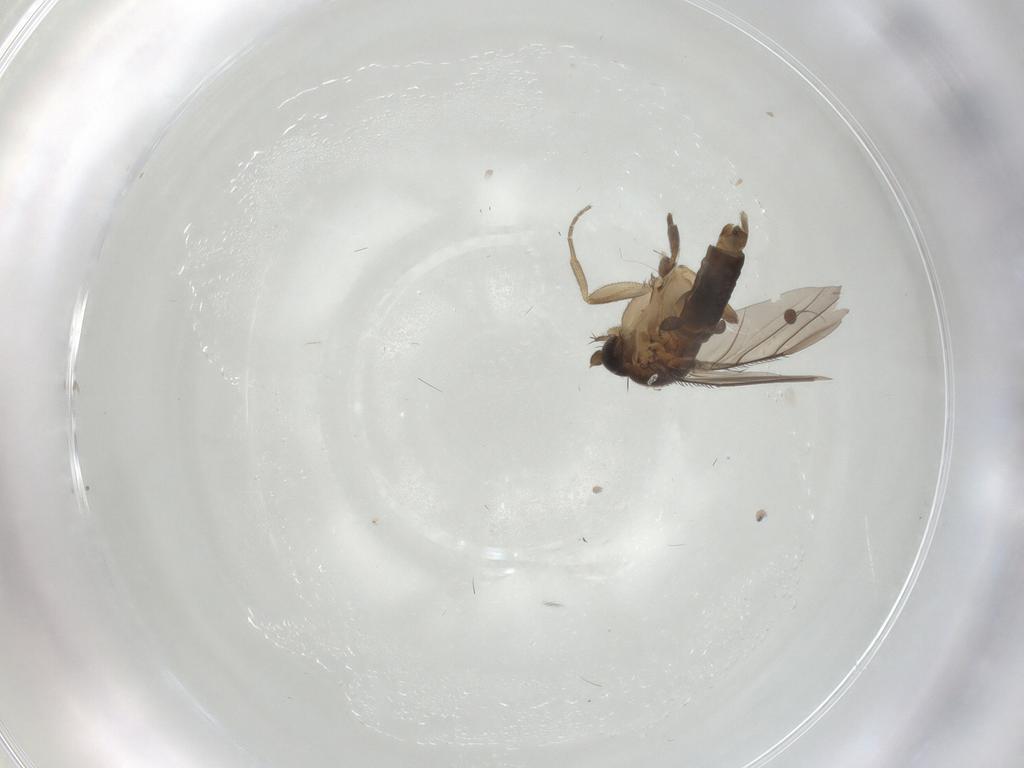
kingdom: Animalia
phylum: Arthropoda
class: Insecta
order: Diptera
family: Phoridae
